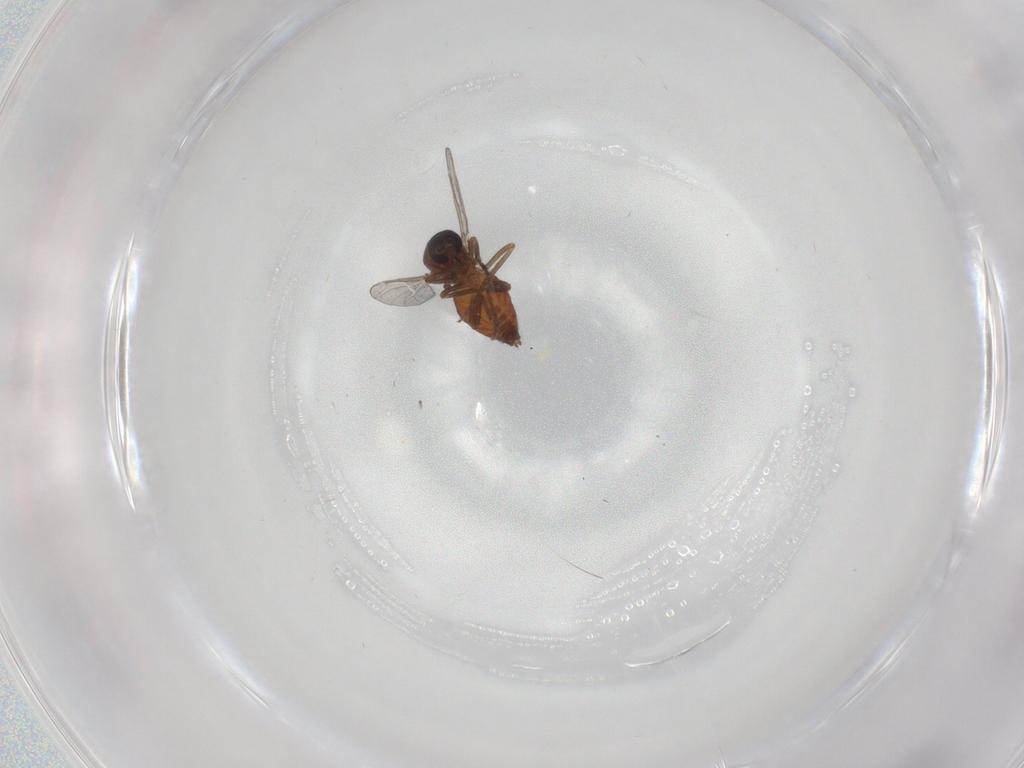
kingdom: Animalia
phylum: Arthropoda
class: Insecta
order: Diptera
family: Tipulidae
